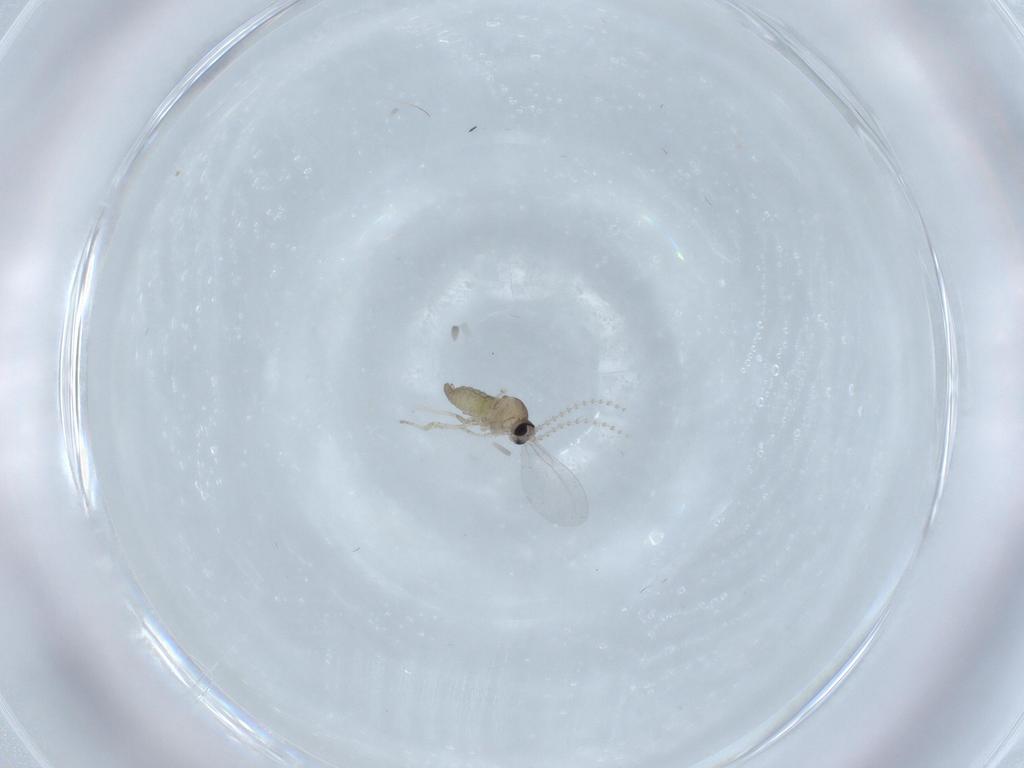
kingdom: Animalia
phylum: Arthropoda
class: Insecta
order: Diptera
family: Cecidomyiidae
